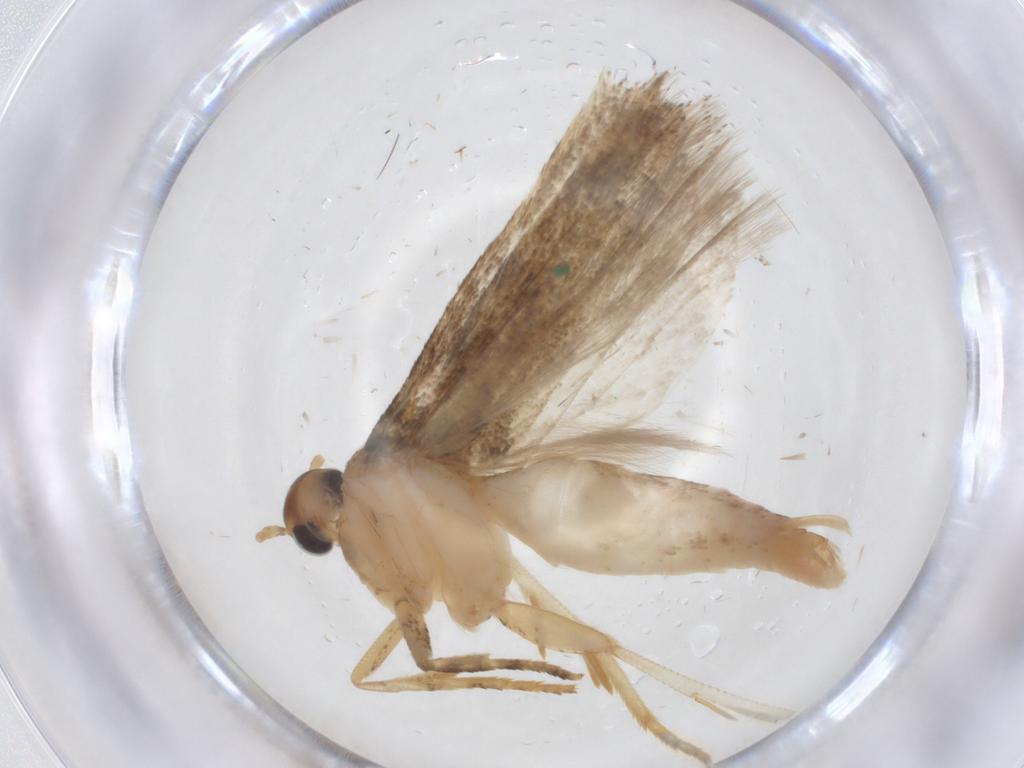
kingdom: Animalia
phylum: Arthropoda
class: Insecta
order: Lepidoptera
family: Gelechiidae
